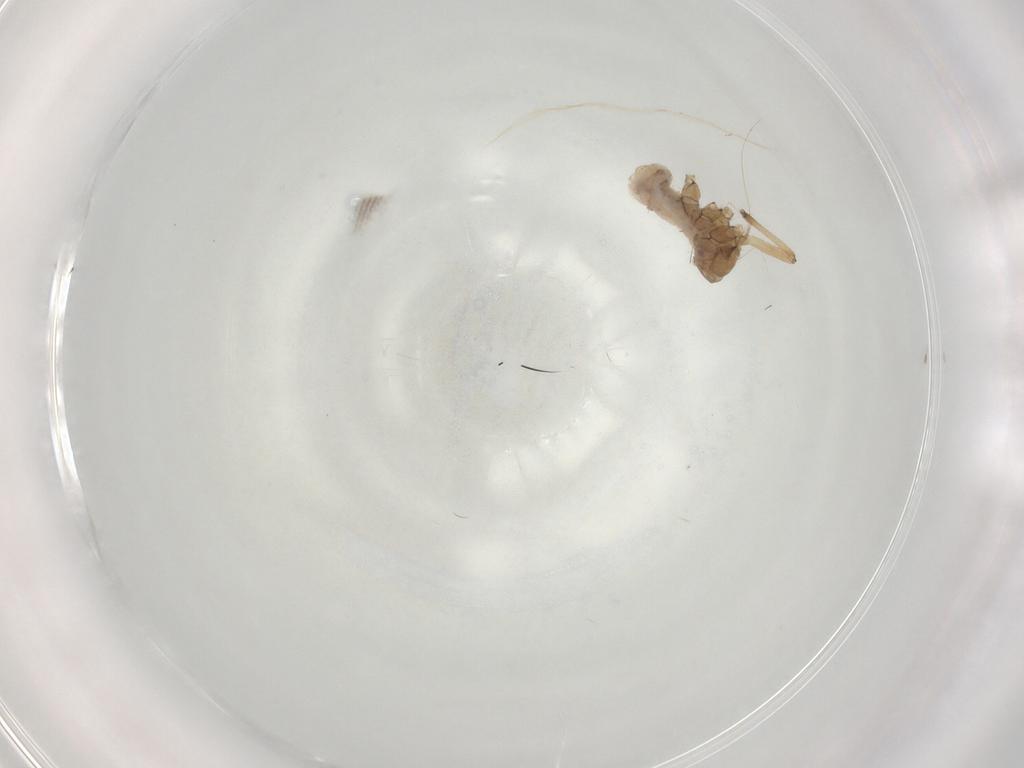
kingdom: Animalia
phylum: Arthropoda
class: Insecta
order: Hemiptera
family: Aphididae
